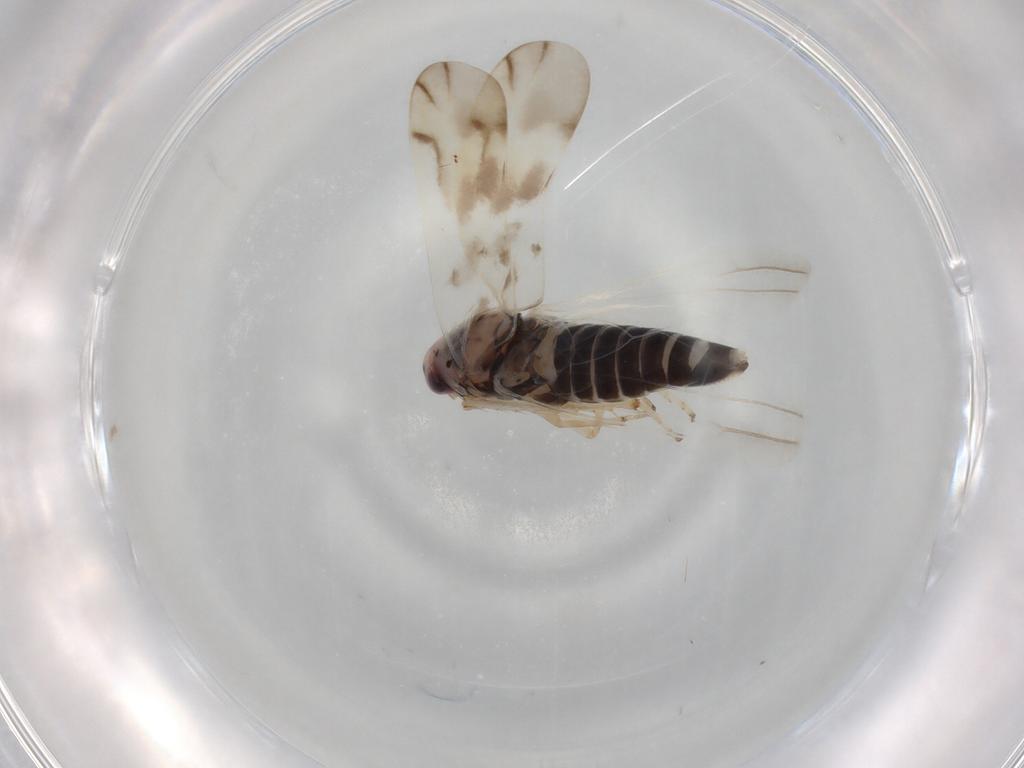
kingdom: Animalia
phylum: Arthropoda
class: Insecta
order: Hemiptera
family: Cicadellidae
